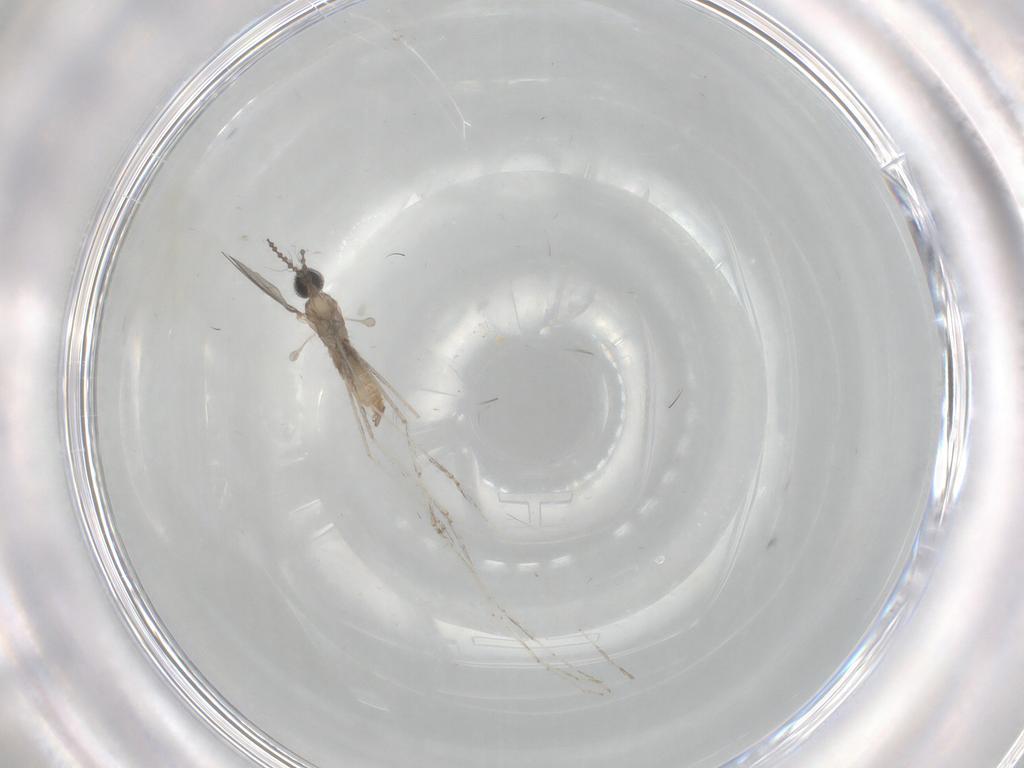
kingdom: Animalia
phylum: Arthropoda
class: Insecta
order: Diptera
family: Cecidomyiidae
